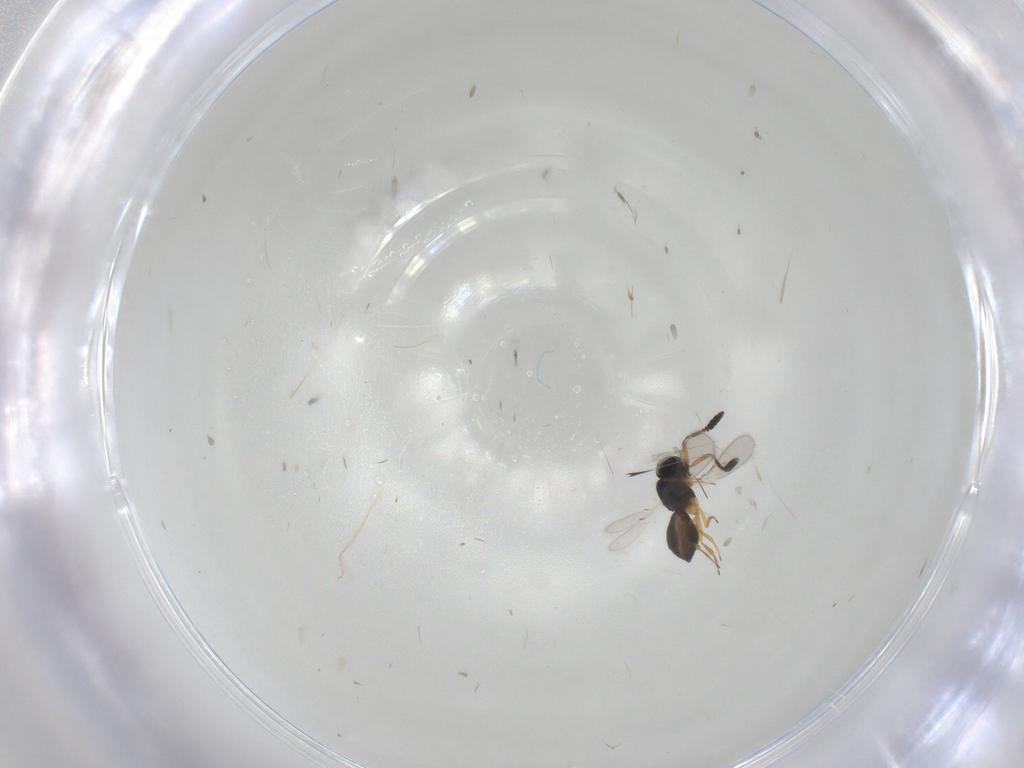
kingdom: Animalia
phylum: Arthropoda
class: Insecta
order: Hymenoptera
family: Scelionidae
